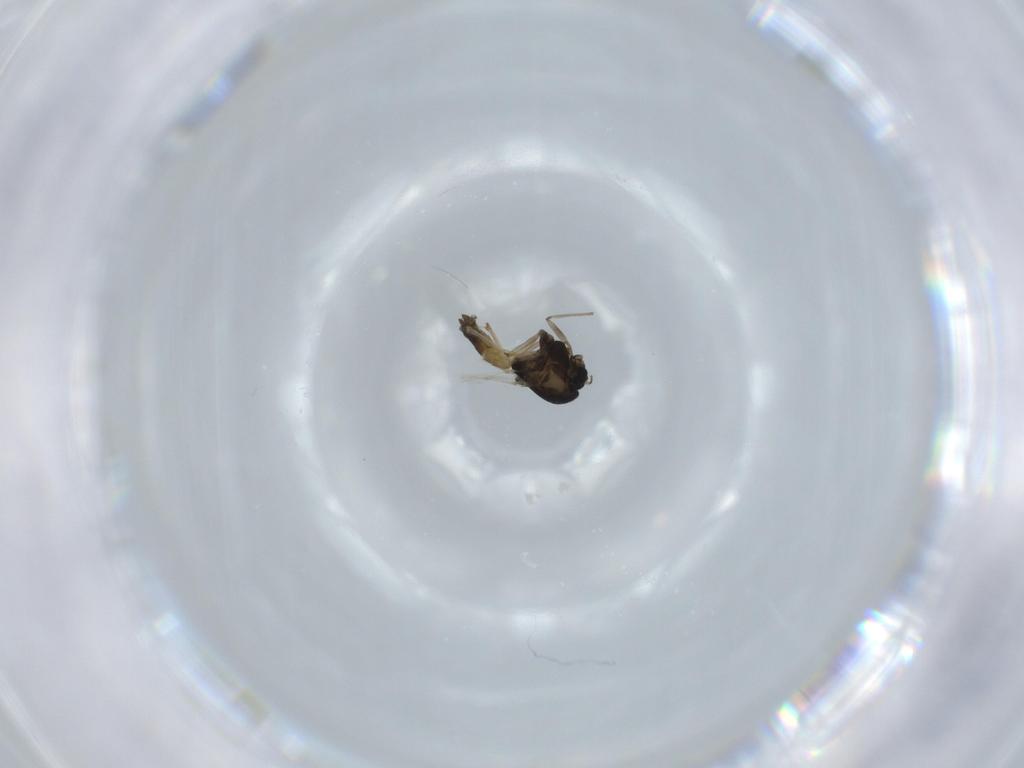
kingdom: Animalia
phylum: Arthropoda
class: Insecta
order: Diptera
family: Chironomidae
